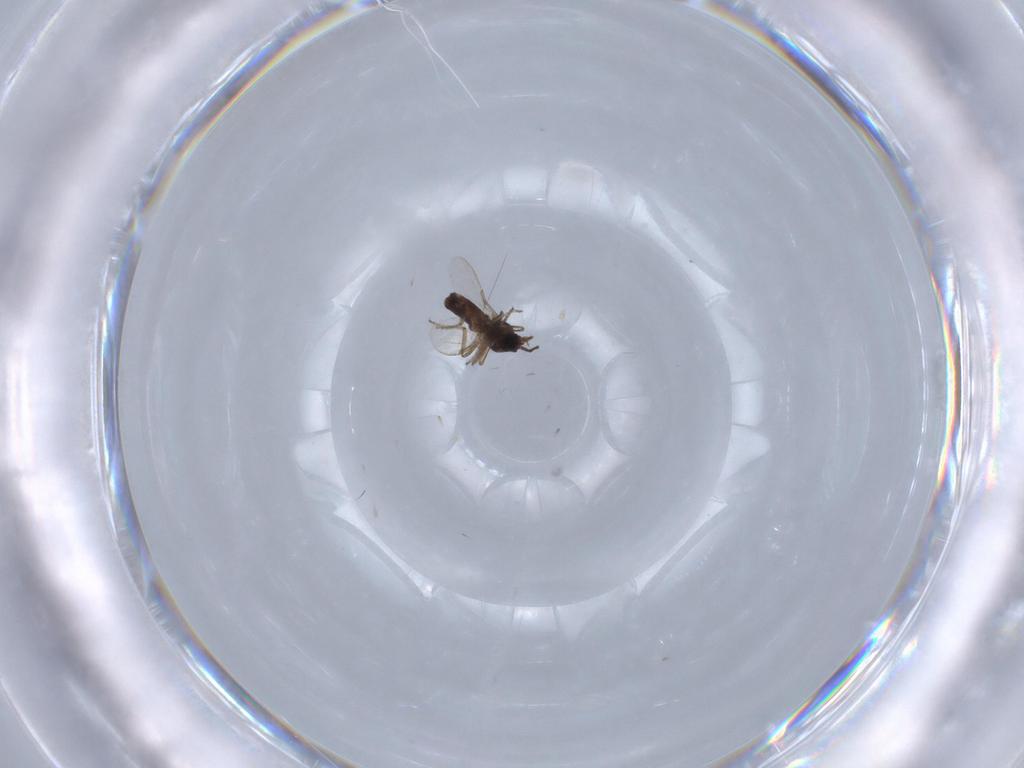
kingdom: Animalia
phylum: Arthropoda
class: Insecta
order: Diptera
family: Ceratopogonidae
